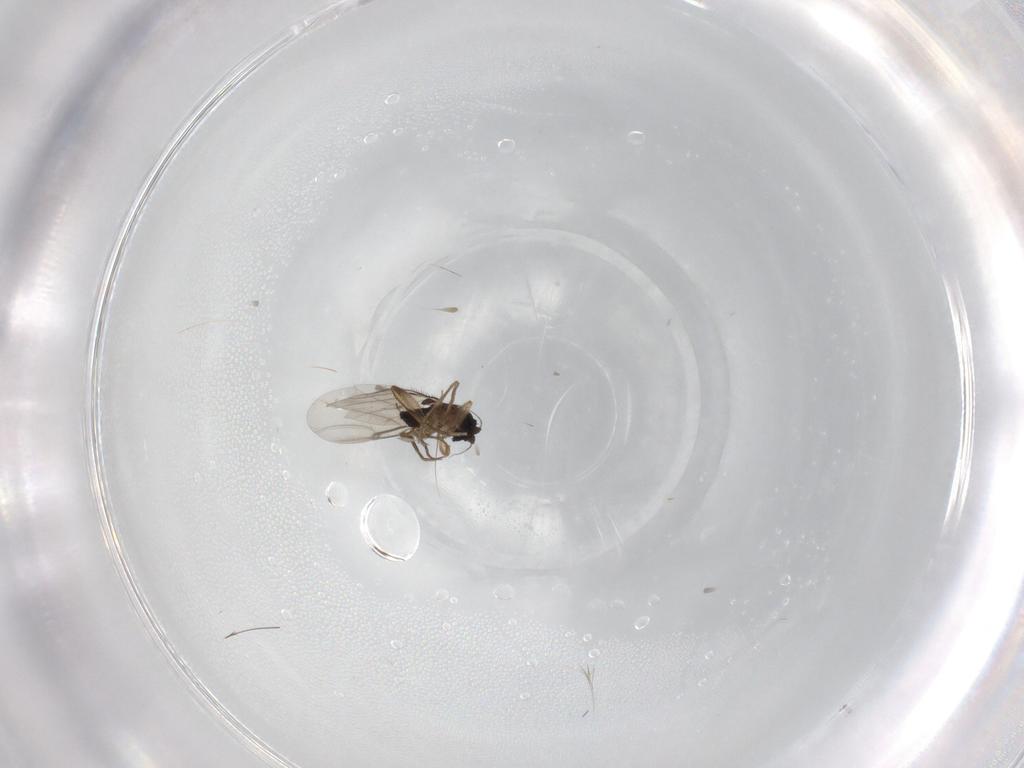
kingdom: Animalia
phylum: Arthropoda
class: Insecta
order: Diptera
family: Phoridae
